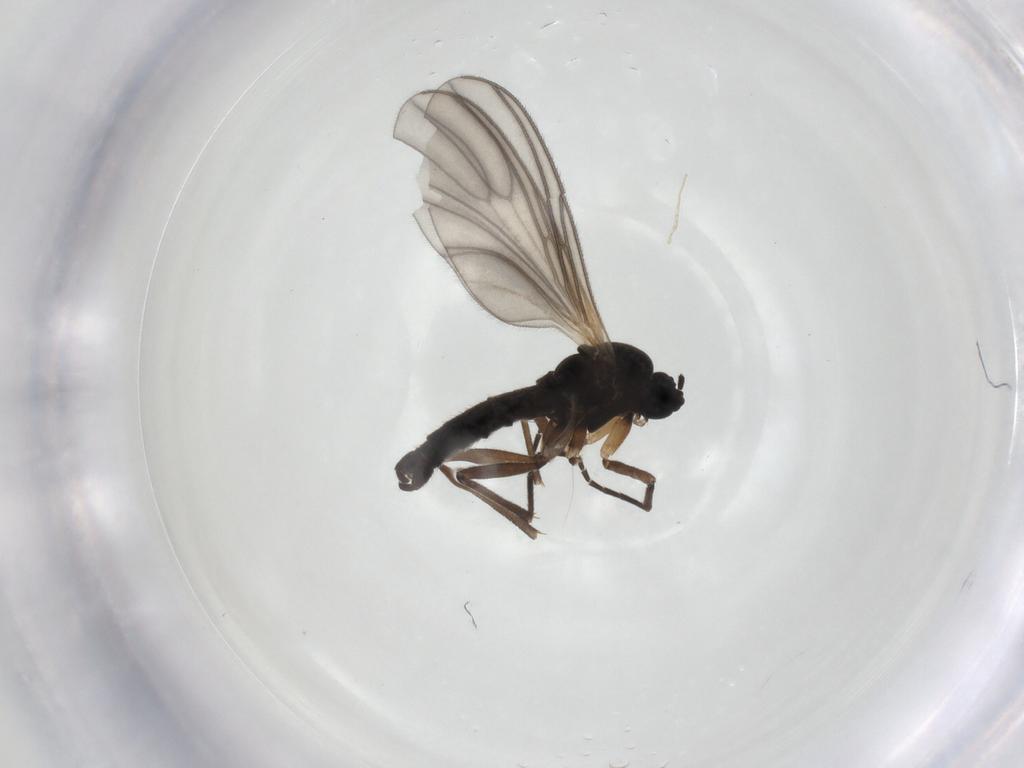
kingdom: Animalia
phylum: Arthropoda
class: Insecta
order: Diptera
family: Sciaridae
